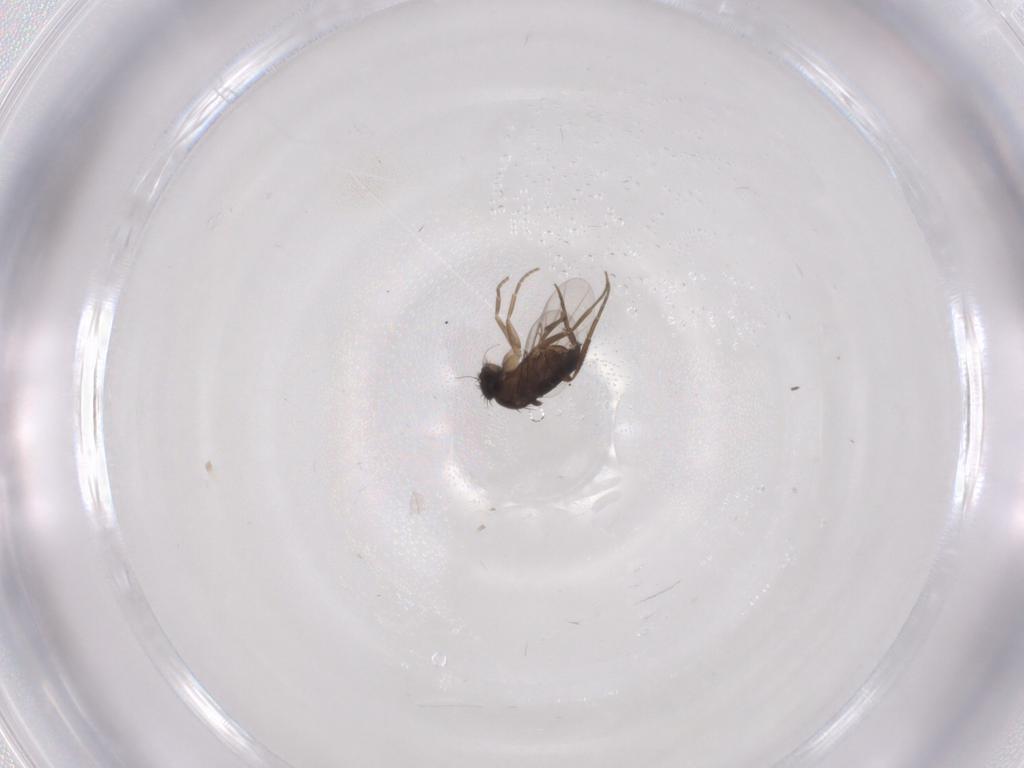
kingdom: Animalia
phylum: Arthropoda
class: Insecta
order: Diptera
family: Phoridae
